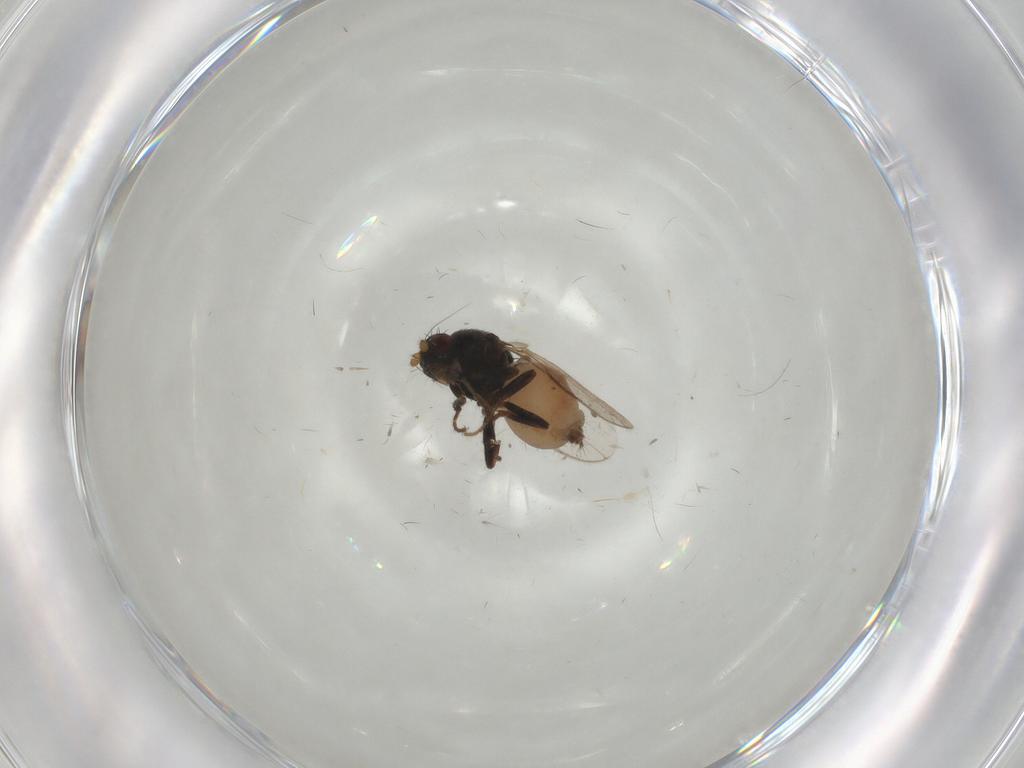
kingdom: Animalia
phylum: Arthropoda
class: Insecta
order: Diptera
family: Sphaeroceridae
